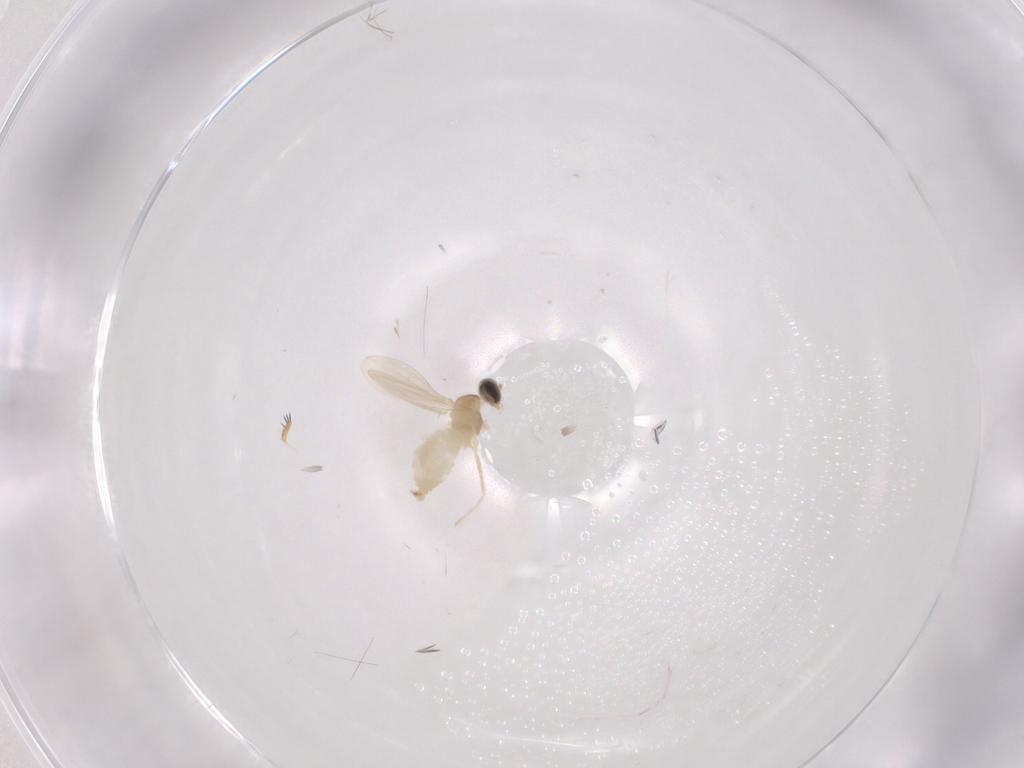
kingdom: Animalia
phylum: Arthropoda
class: Insecta
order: Diptera
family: Cecidomyiidae
